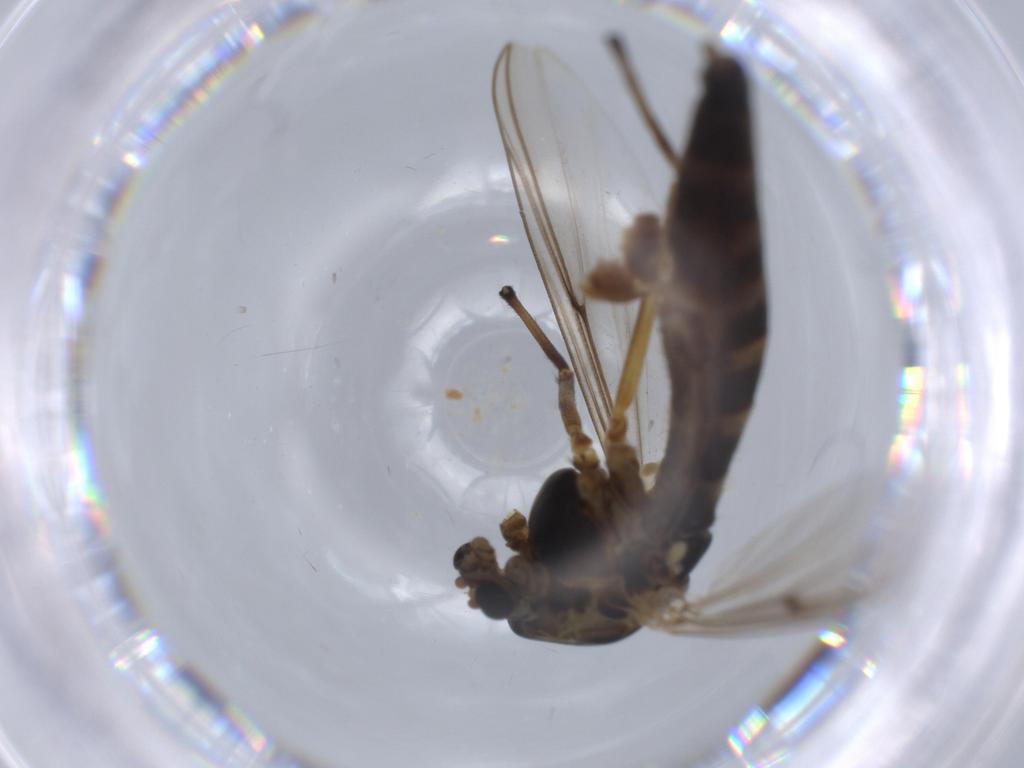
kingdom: Animalia
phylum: Arthropoda
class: Insecta
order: Diptera
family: Chironomidae
